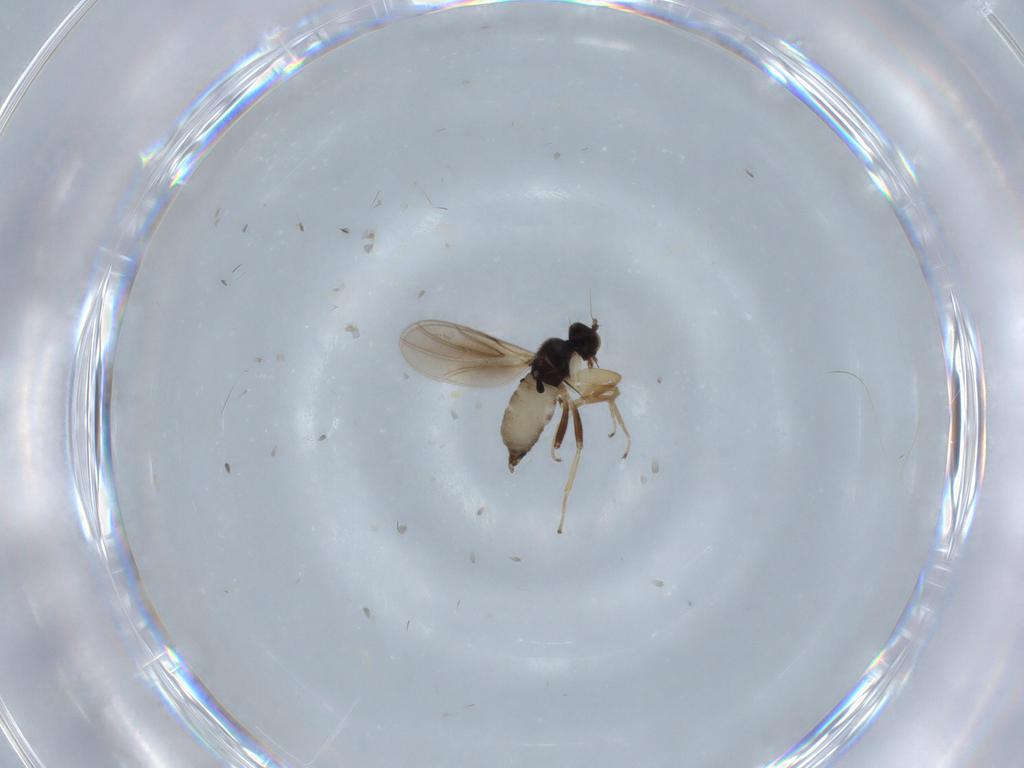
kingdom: Animalia
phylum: Arthropoda
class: Insecta
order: Diptera
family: Hybotidae
